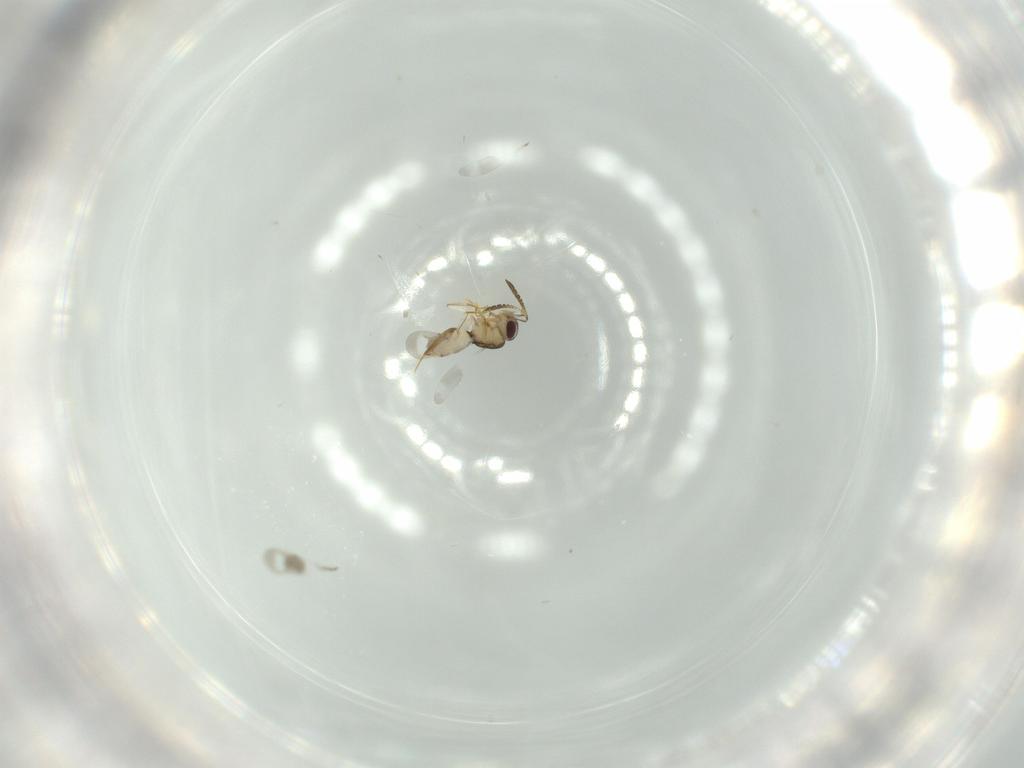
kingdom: Animalia
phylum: Arthropoda
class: Insecta
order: Hymenoptera
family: Ceraphronidae
